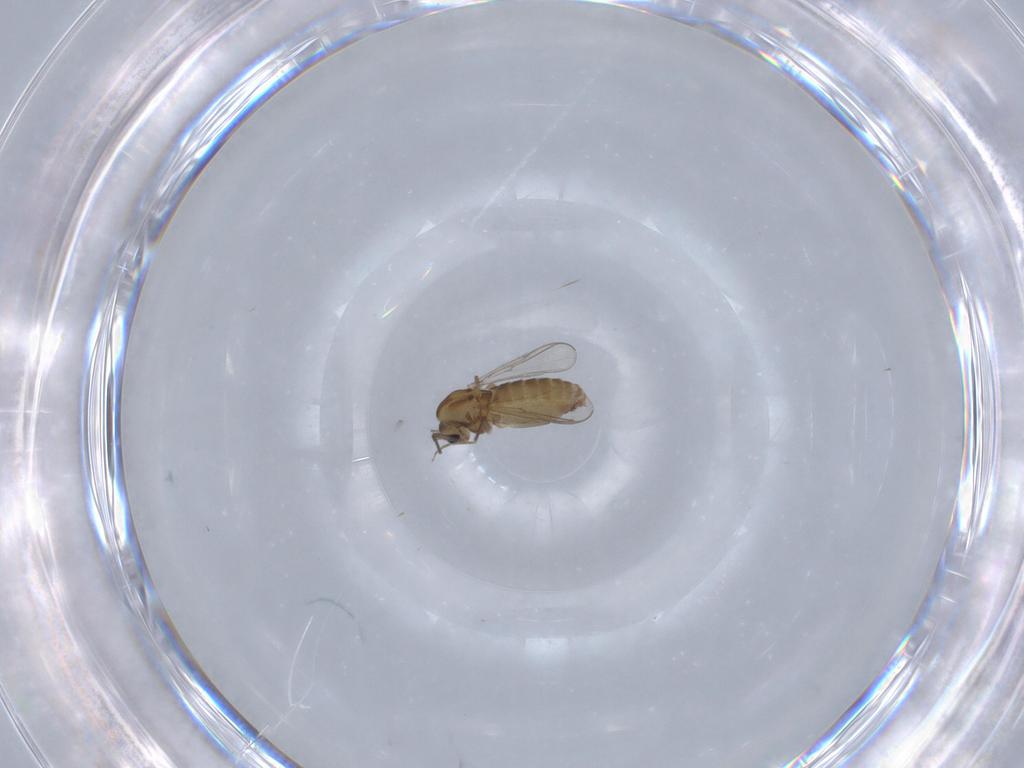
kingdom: Animalia
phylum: Arthropoda
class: Insecta
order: Diptera
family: Chironomidae
